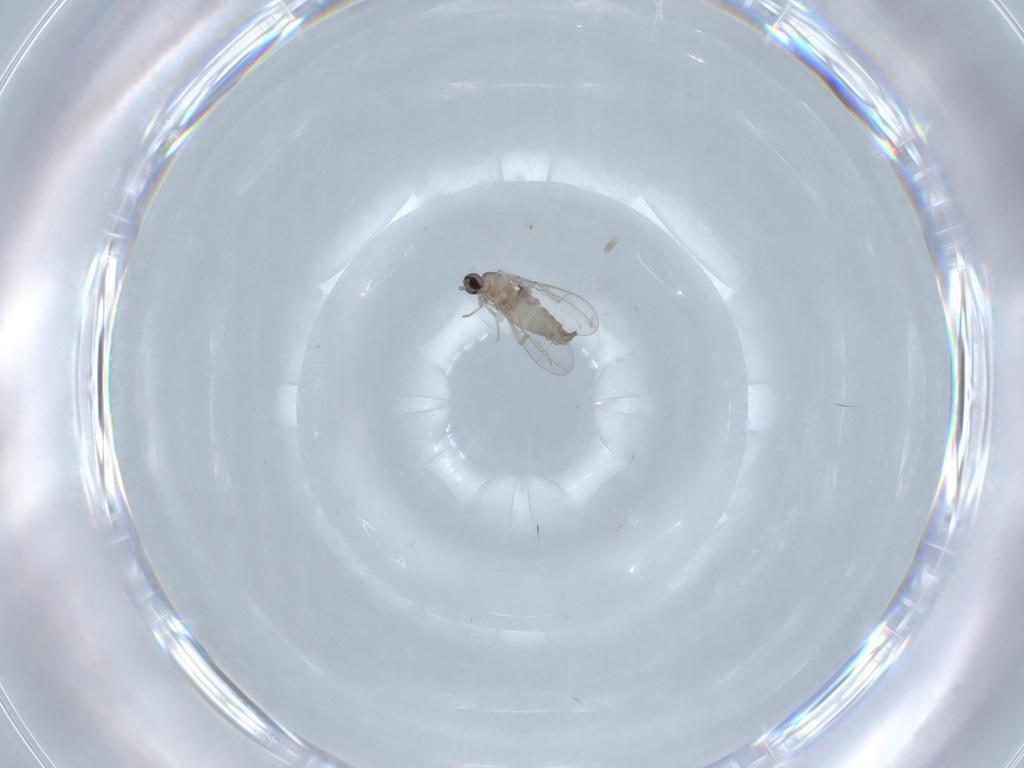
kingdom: Animalia
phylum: Arthropoda
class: Insecta
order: Diptera
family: Cecidomyiidae
